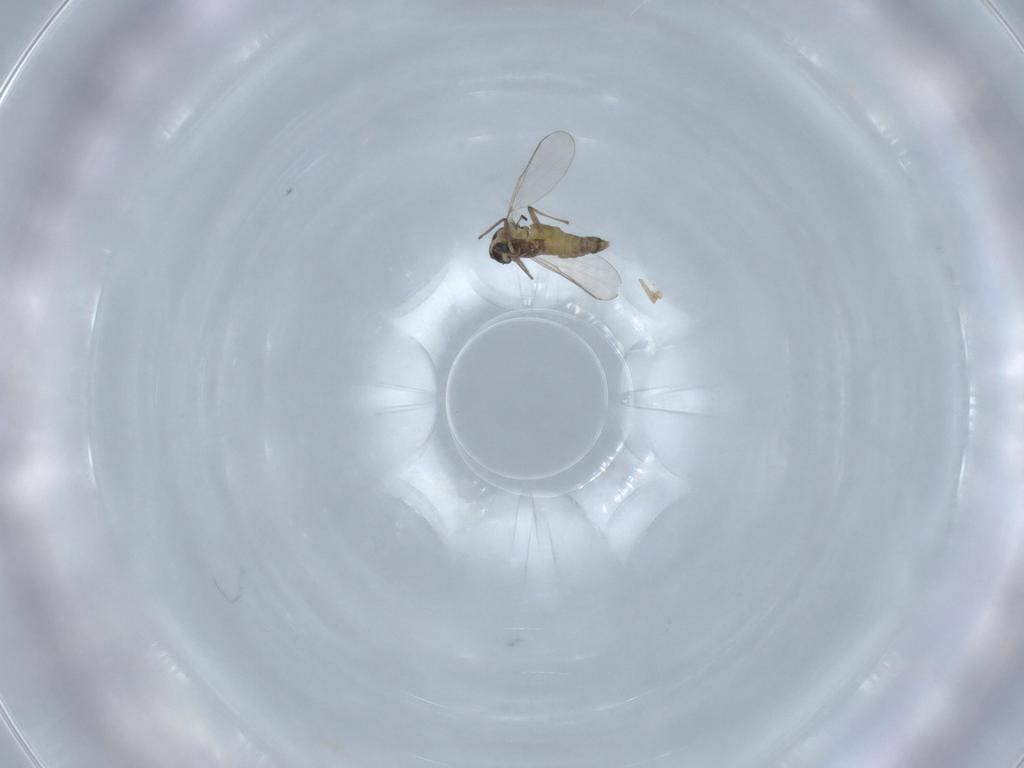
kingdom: Animalia
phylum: Arthropoda
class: Insecta
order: Diptera
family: Chironomidae
